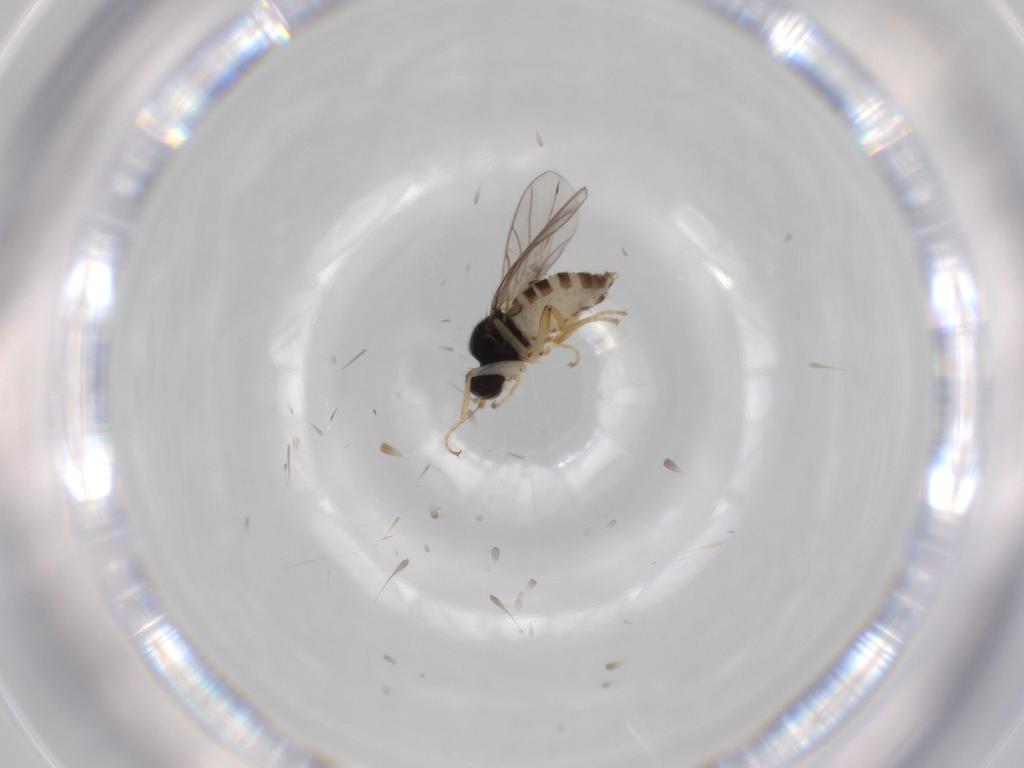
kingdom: Animalia
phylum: Arthropoda
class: Insecta
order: Diptera
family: Hybotidae
